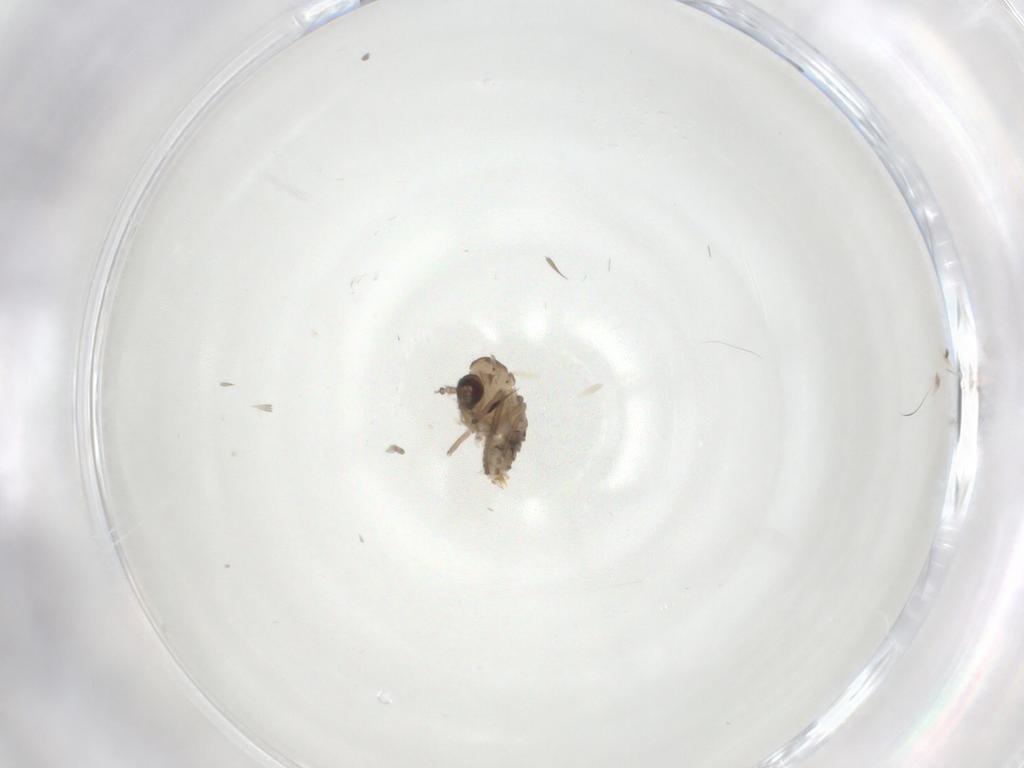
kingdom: Animalia
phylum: Arthropoda
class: Insecta
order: Diptera
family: Psychodidae
